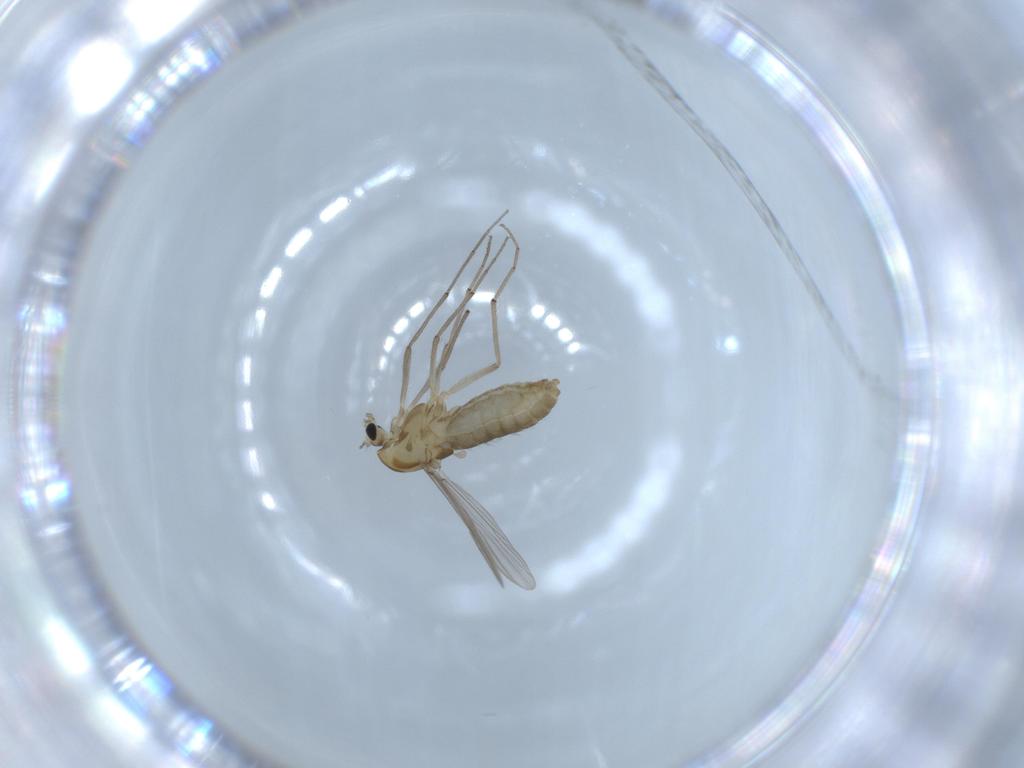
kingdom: Animalia
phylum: Arthropoda
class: Insecta
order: Diptera
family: Chironomidae
